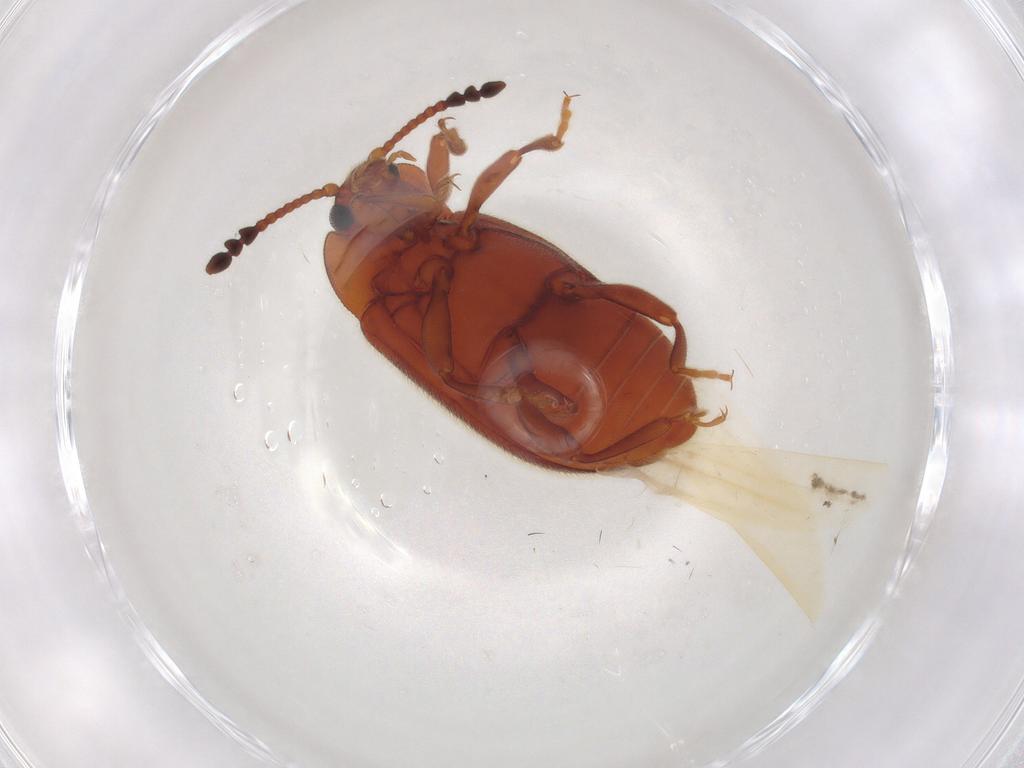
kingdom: Animalia
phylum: Arthropoda
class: Insecta
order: Coleoptera
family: Endomychidae
